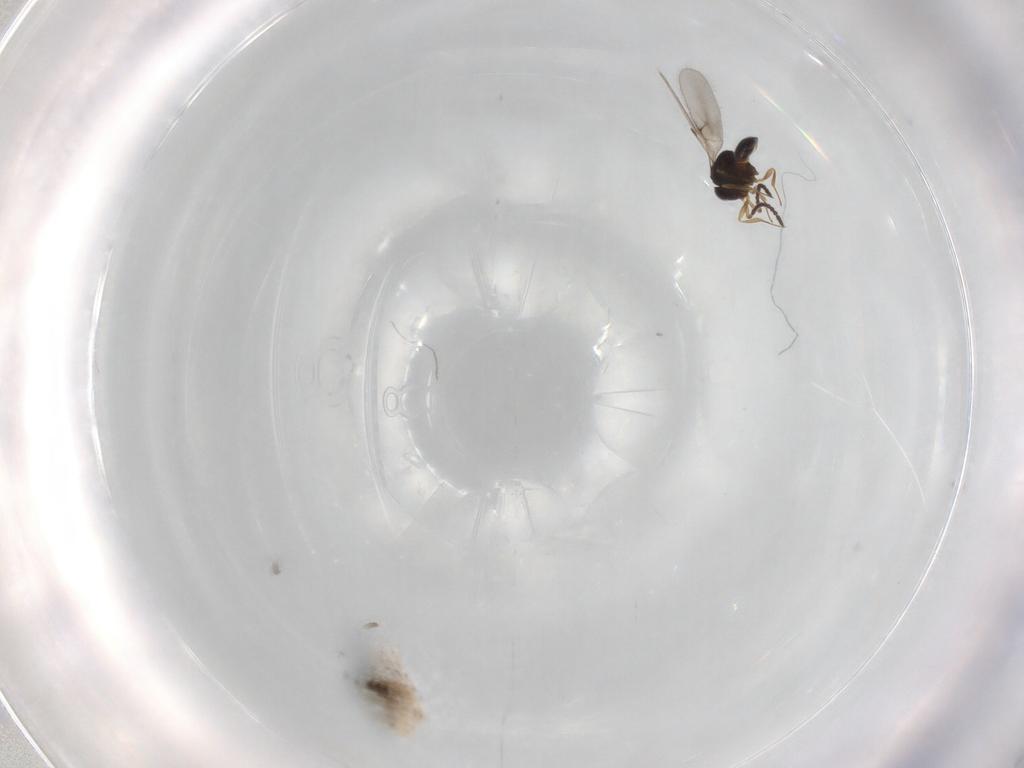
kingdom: Animalia
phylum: Arthropoda
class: Insecta
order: Hymenoptera
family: Scelionidae
